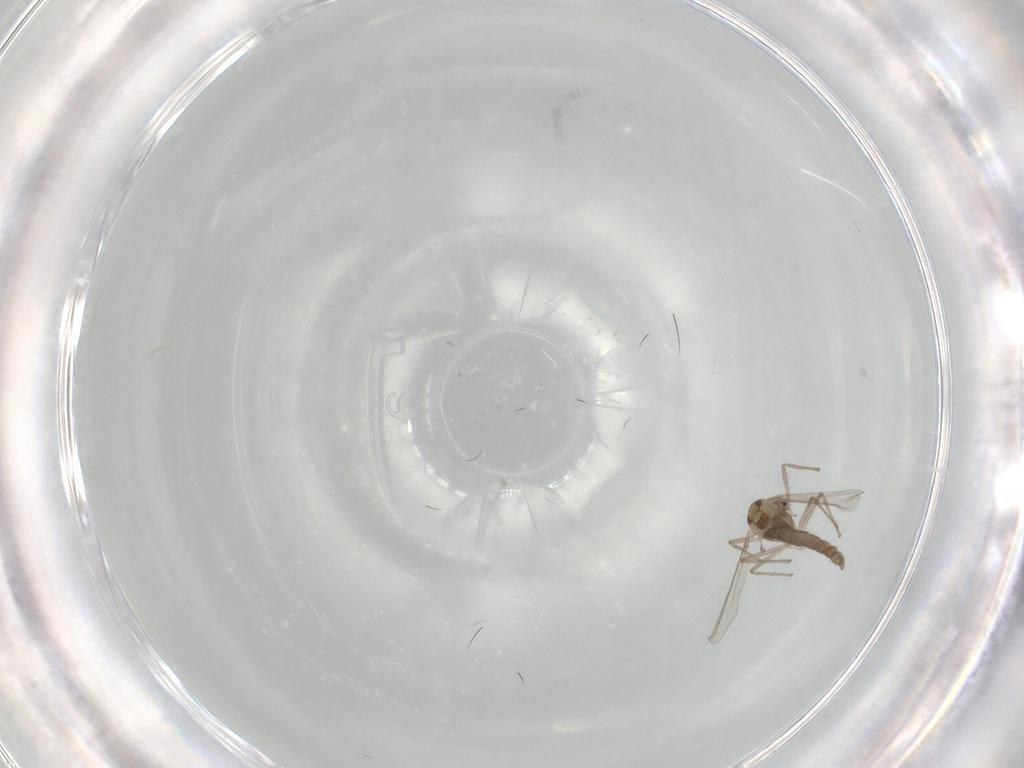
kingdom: Animalia
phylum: Arthropoda
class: Insecta
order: Diptera
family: Chironomidae
